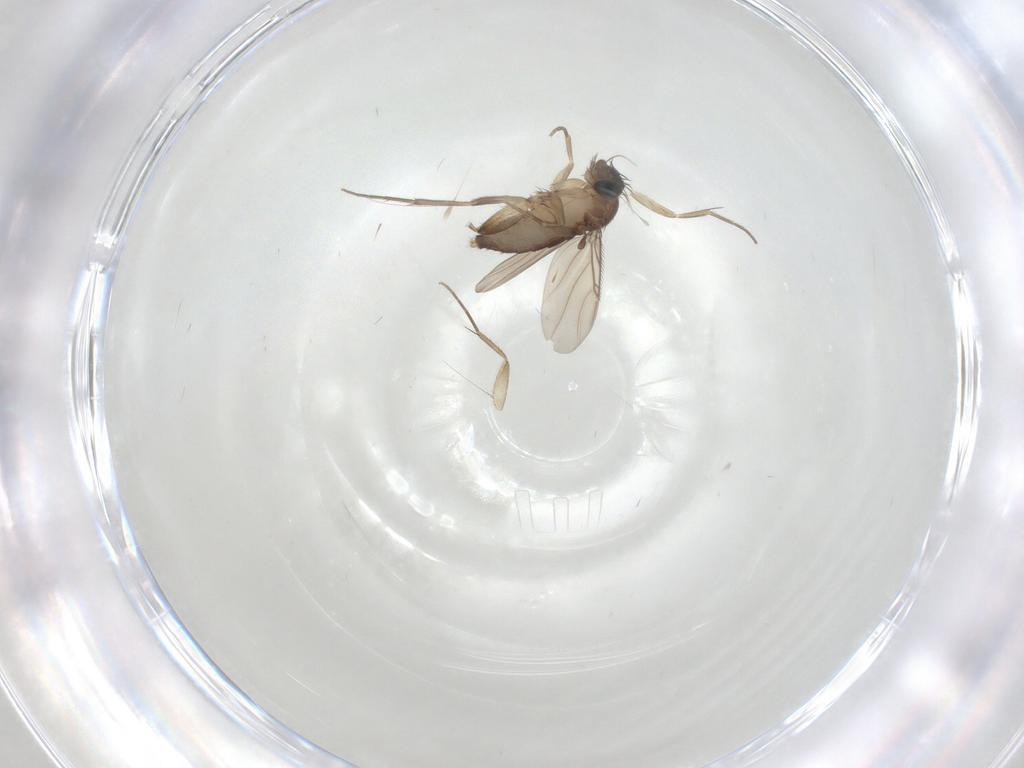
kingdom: Animalia
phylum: Arthropoda
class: Insecta
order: Diptera
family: Phoridae
